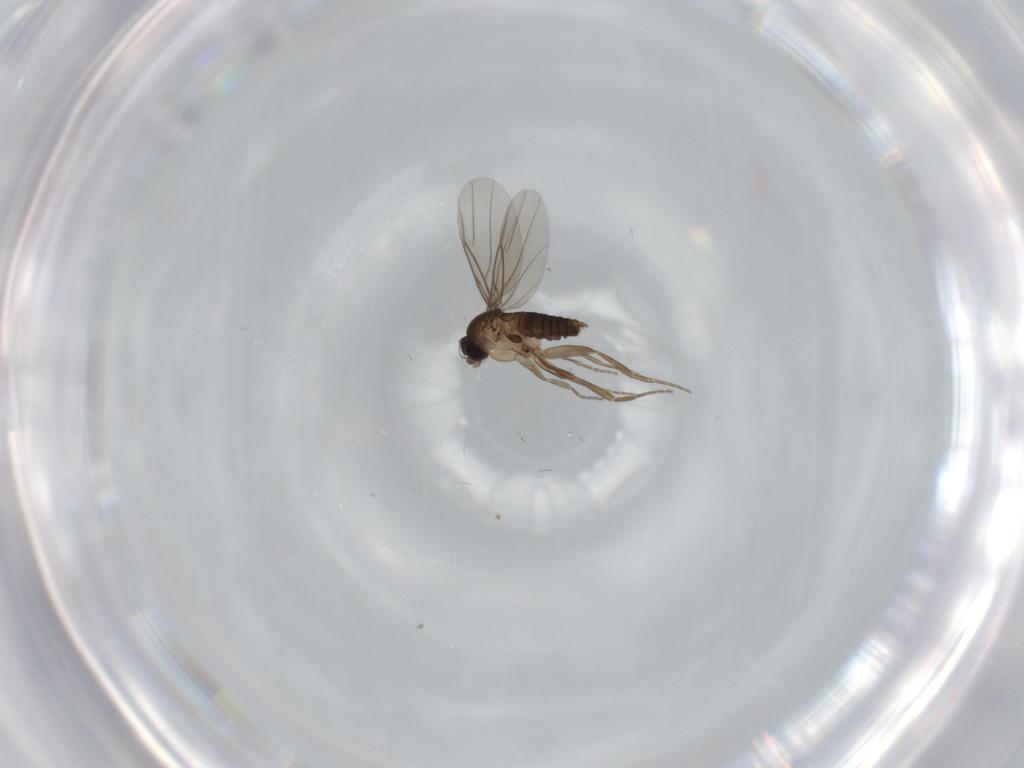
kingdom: Animalia
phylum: Arthropoda
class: Insecta
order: Diptera
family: Phoridae
